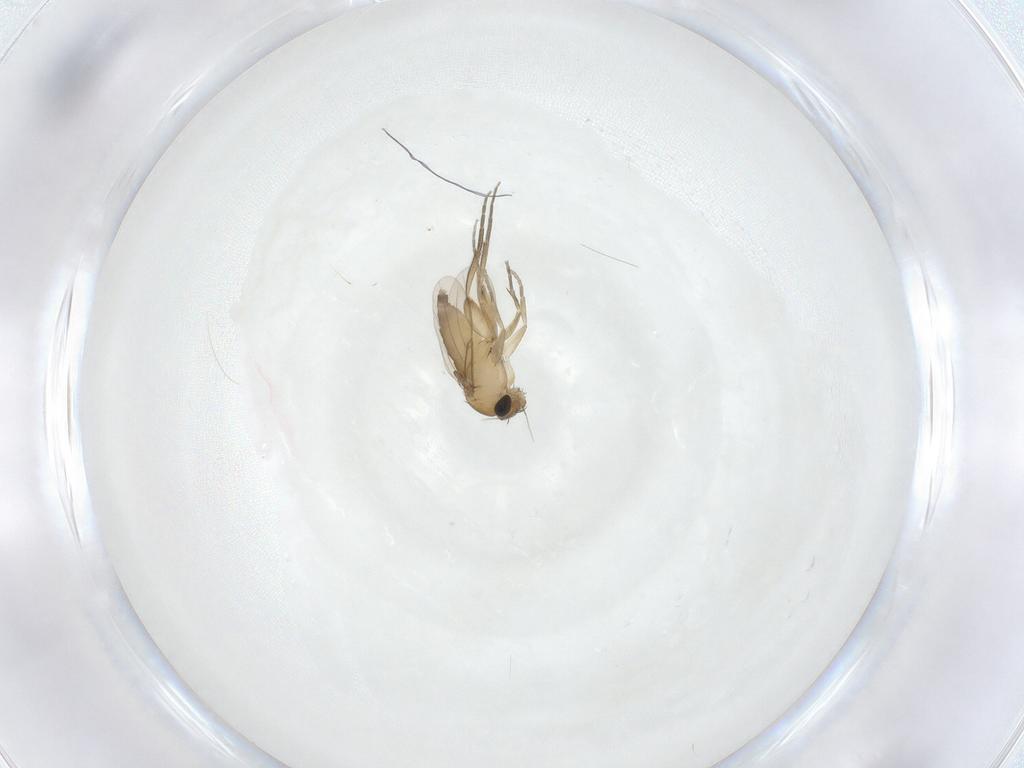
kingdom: Animalia
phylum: Arthropoda
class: Insecta
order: Diptera
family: Phoridae
